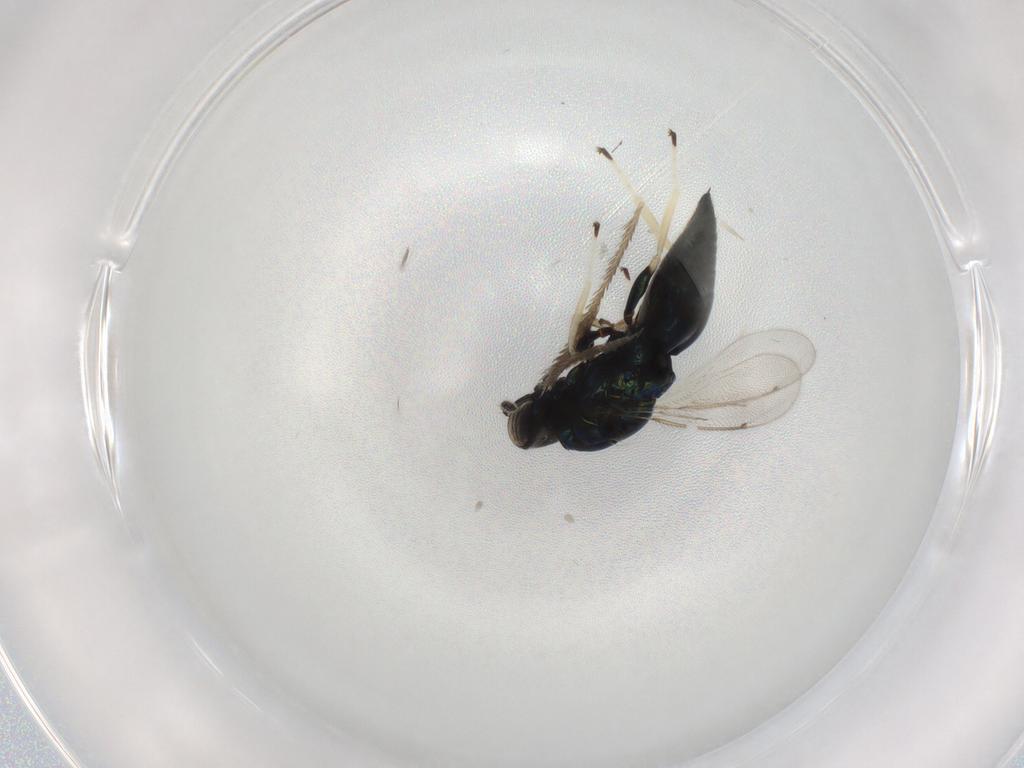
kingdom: Animalia
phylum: Arthropoda
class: Insecta
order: Hymenoptera
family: Eulophidae
